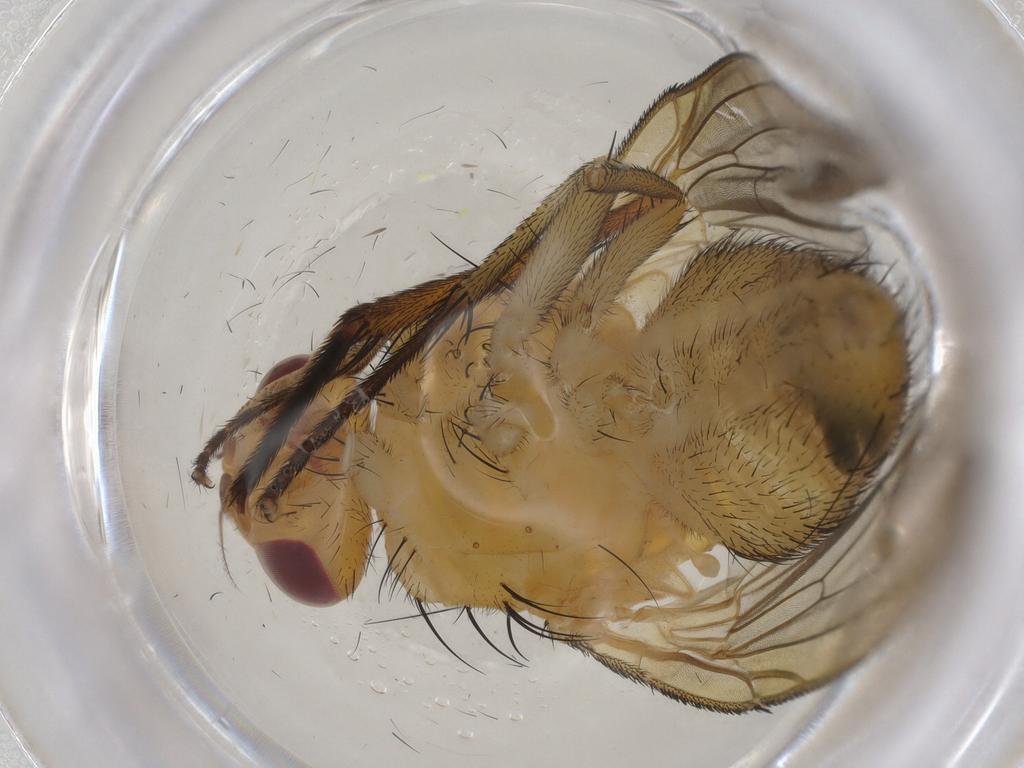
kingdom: Animalia
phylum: Arthropoda
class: Insecta
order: Diptera
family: Muscidae
